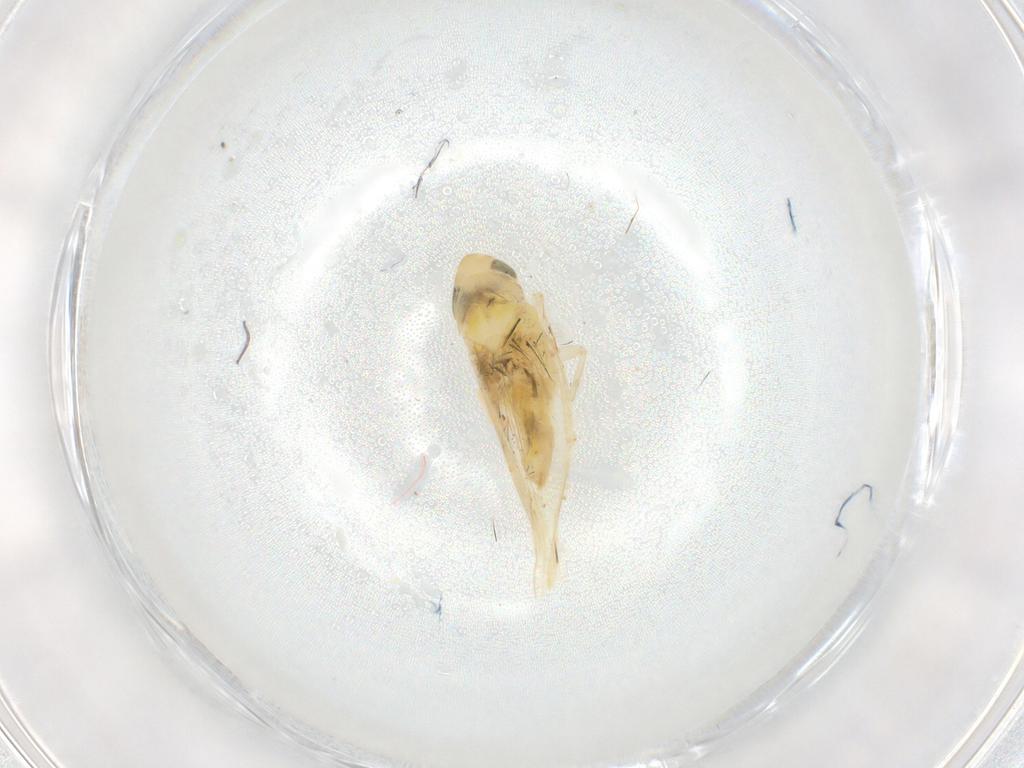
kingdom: Animalia
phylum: Arthropoda
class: Insecta
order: Hemiptera
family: Cicadellidae
